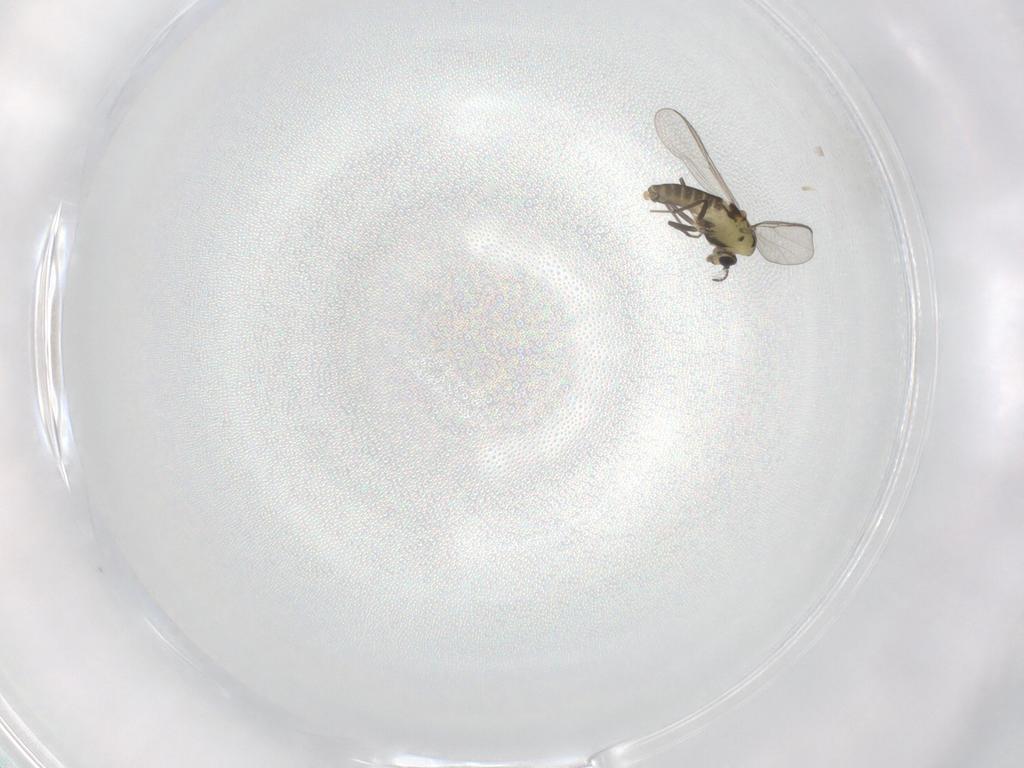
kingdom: Animalia
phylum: Arthropoda
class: Insecta
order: Diptera
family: Chironomidae
